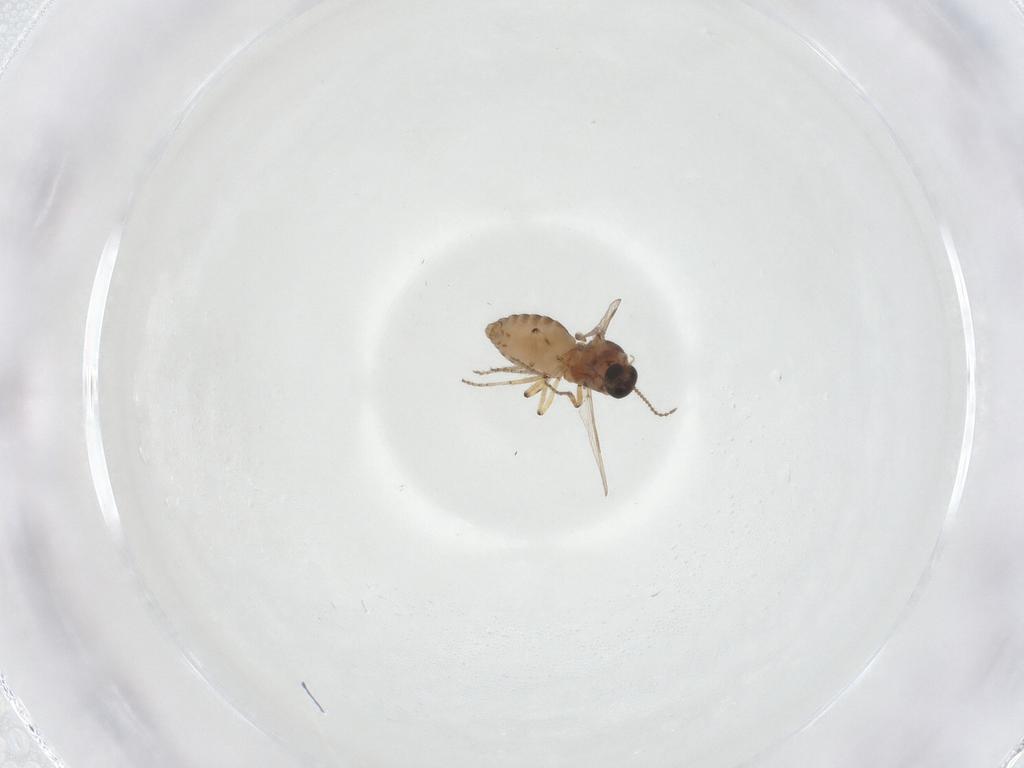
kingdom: Animalia
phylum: Arthropoda
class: Insecta
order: Diptera
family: Ceratopogonidae
